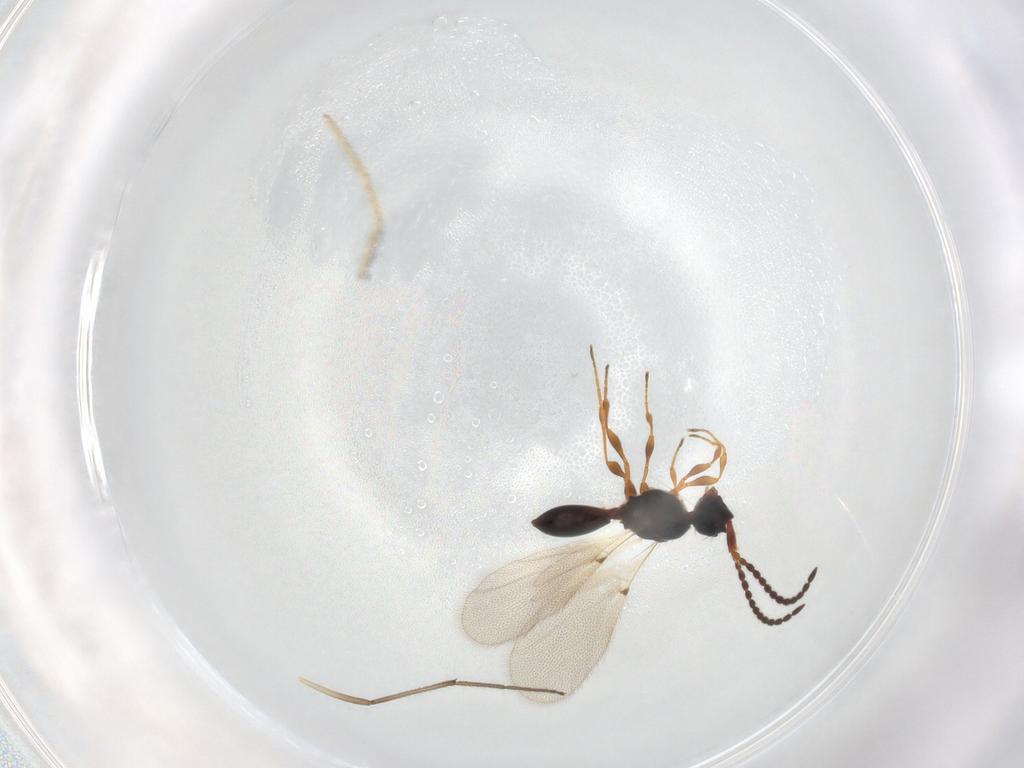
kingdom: Animalia
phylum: Arthropoda
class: Insecta
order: Hymenoptera
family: Diapriidae
